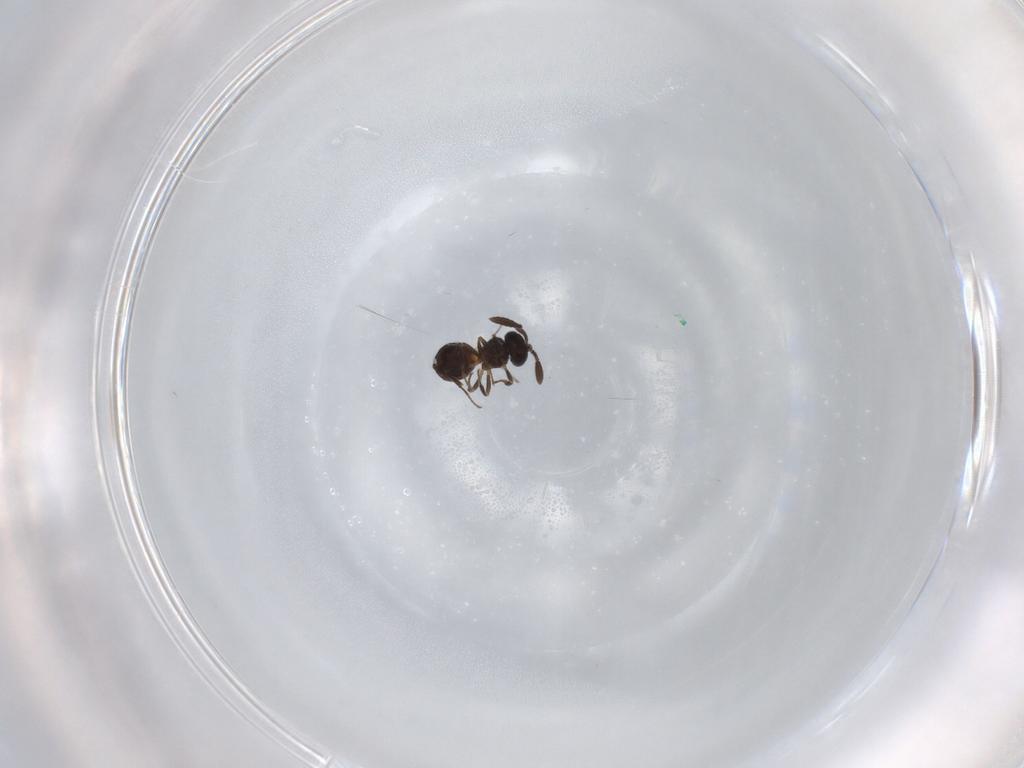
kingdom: Animalia
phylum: Arthropoda
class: Insecta
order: Hymenoptera
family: Scelionidae
